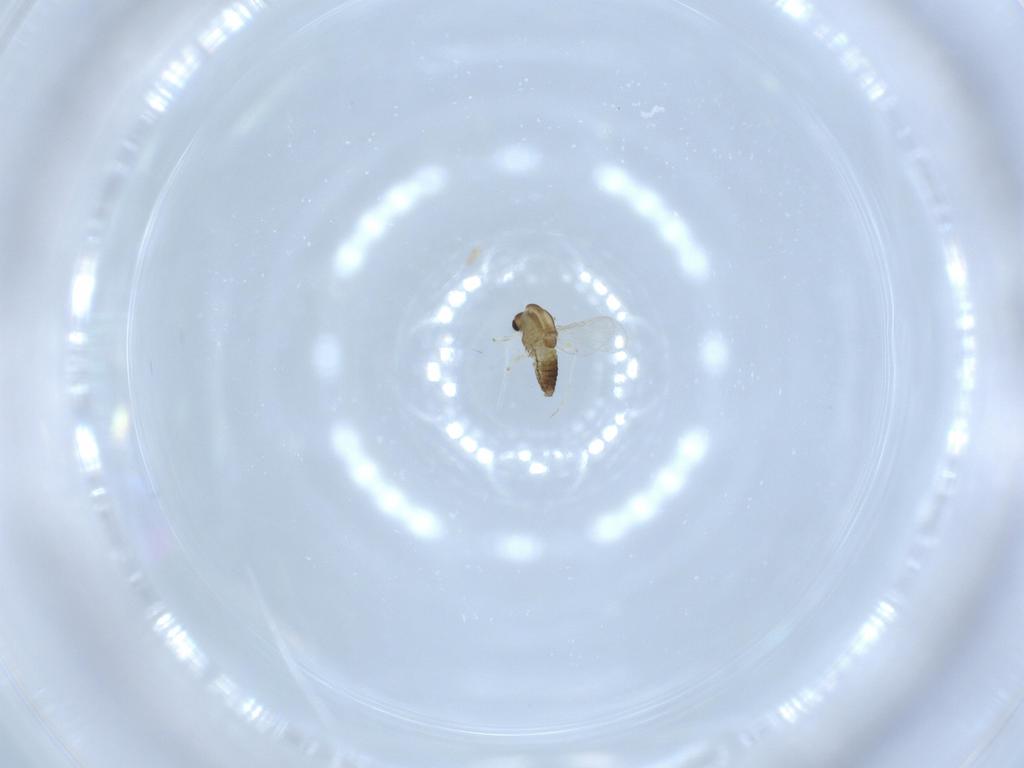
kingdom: Animalia
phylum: Arthropoda
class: Insecta
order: Diptera
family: Chironomidae
